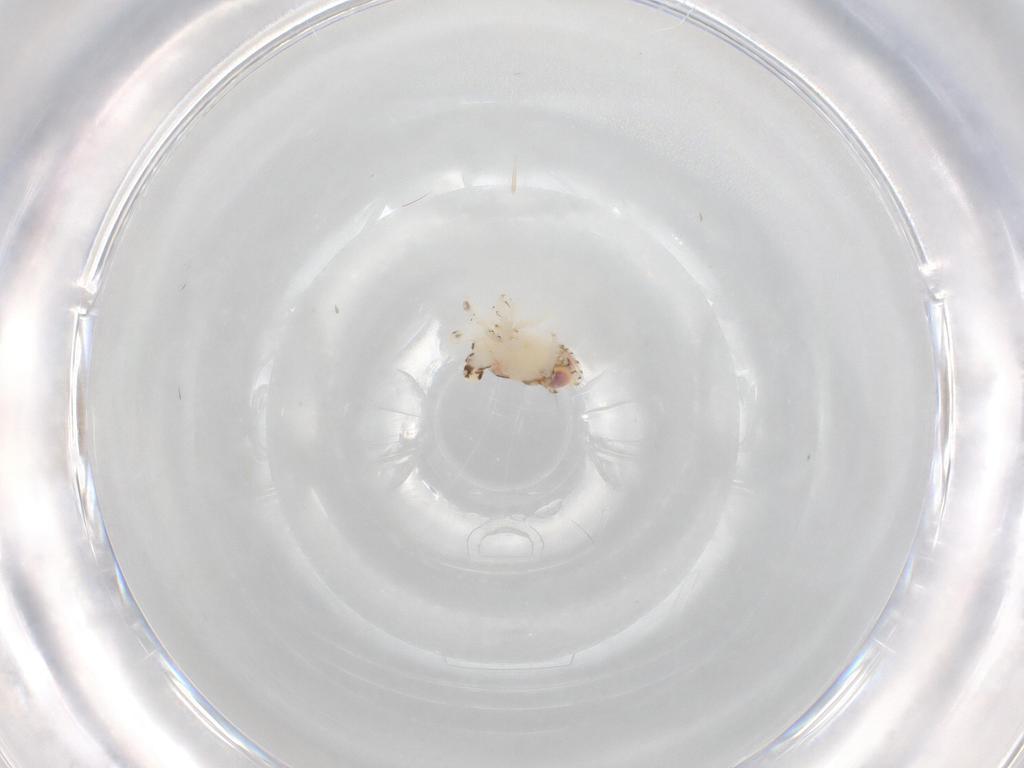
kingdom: Animalia
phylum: Arthropoda
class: Insecta
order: Hemiptera
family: Nogodinidae
